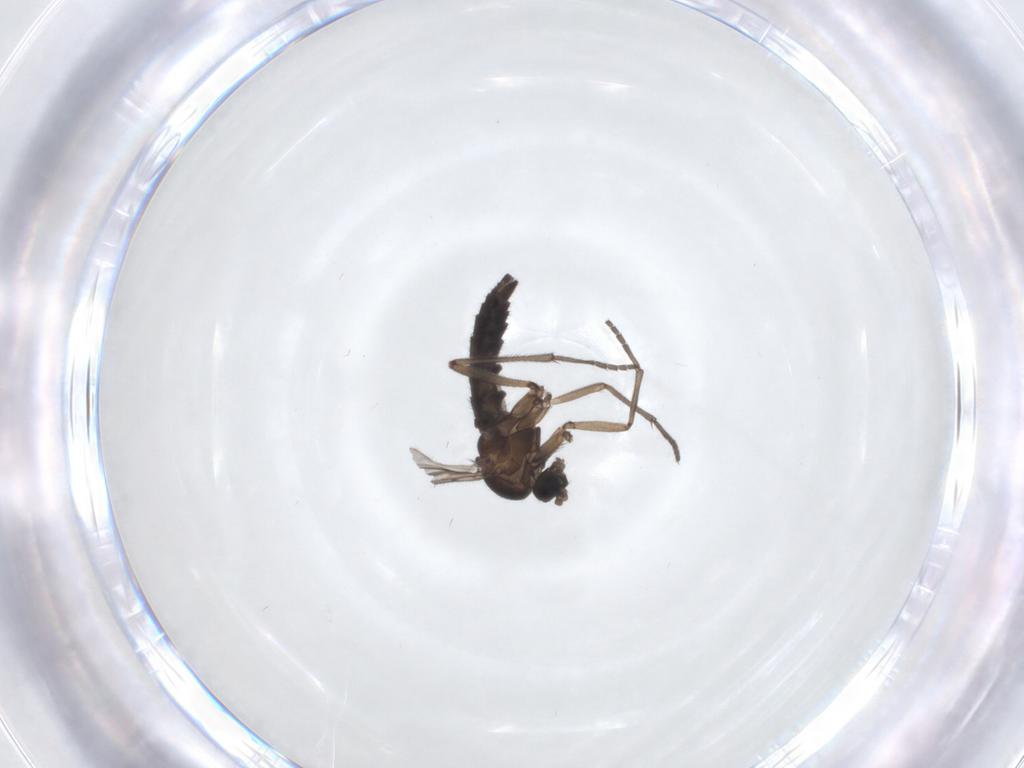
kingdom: Animalia
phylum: Arthropoda
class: Insecta
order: Diptera
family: Sciaridae
